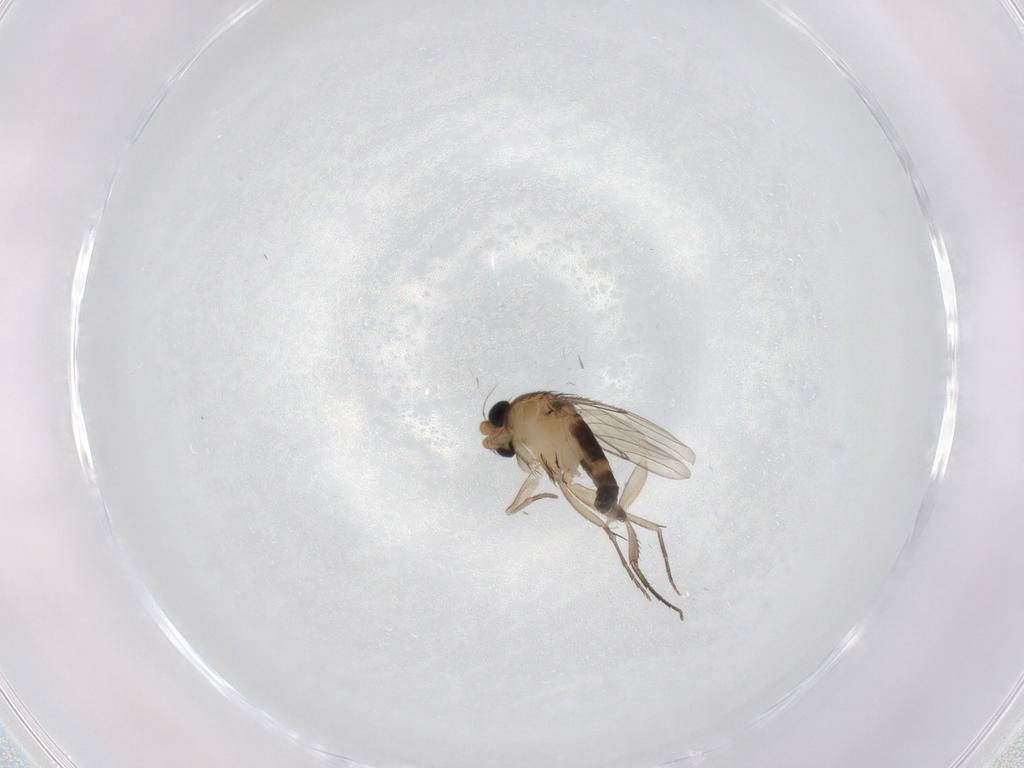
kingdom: Animalia
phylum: Arthropoda
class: Insecta
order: Diptera
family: Phoridae
